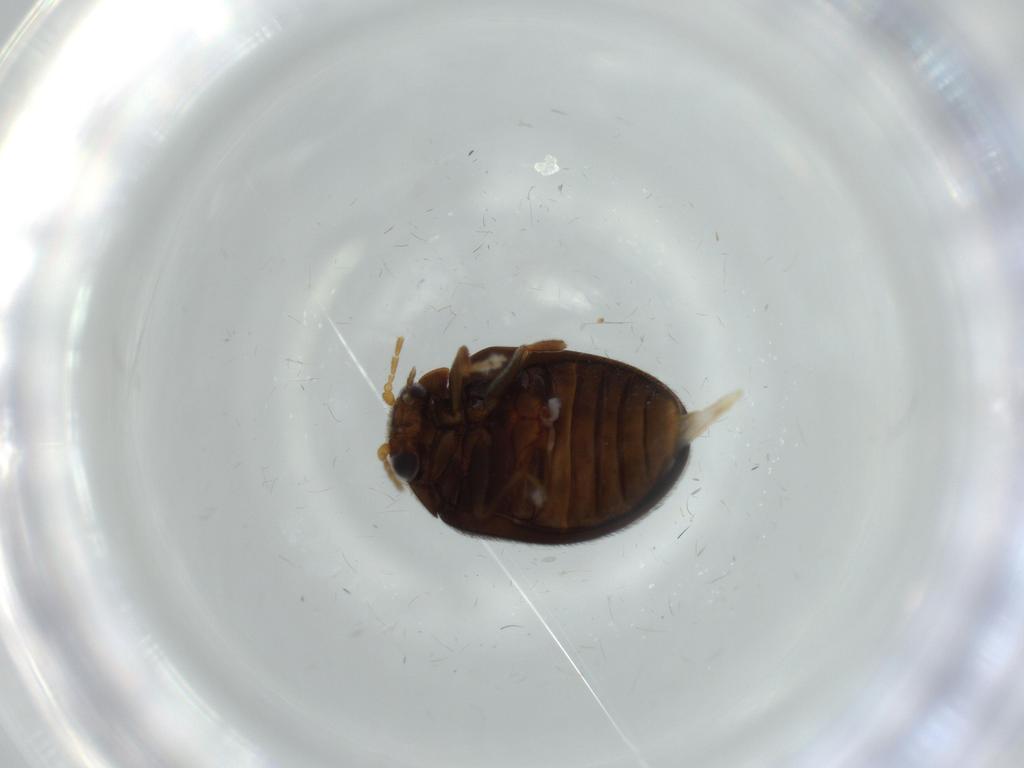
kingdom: Animalia
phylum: Arthropoda
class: Insecta
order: Coleoptera
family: Scirtidae
